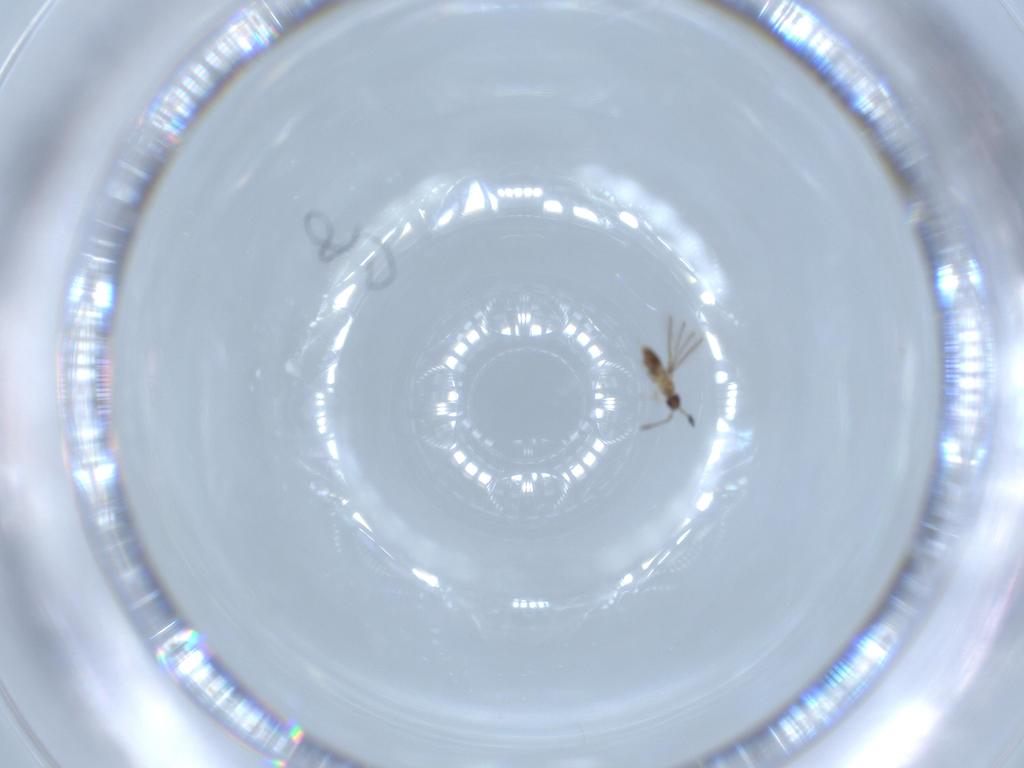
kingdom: Animalia
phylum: Arthropoda
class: Insecta
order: Hymenoptera
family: Mymaridae
